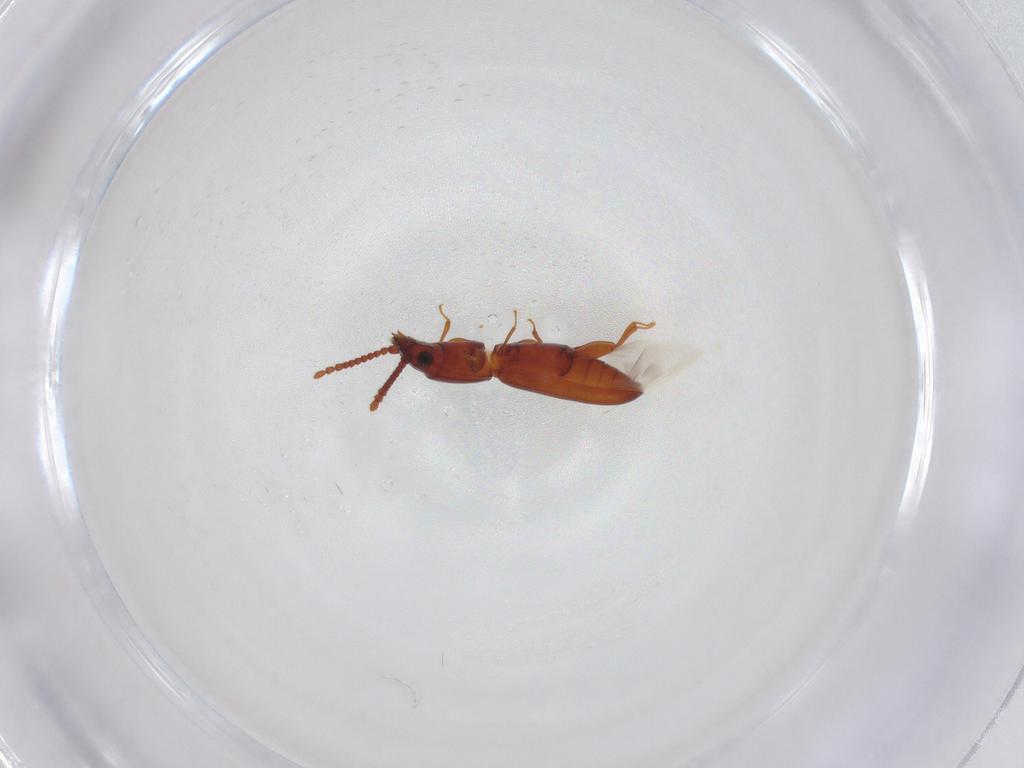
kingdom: Animalia
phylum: Arthropoda
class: Insecta
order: Coleoptera
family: Laemophloeidae
